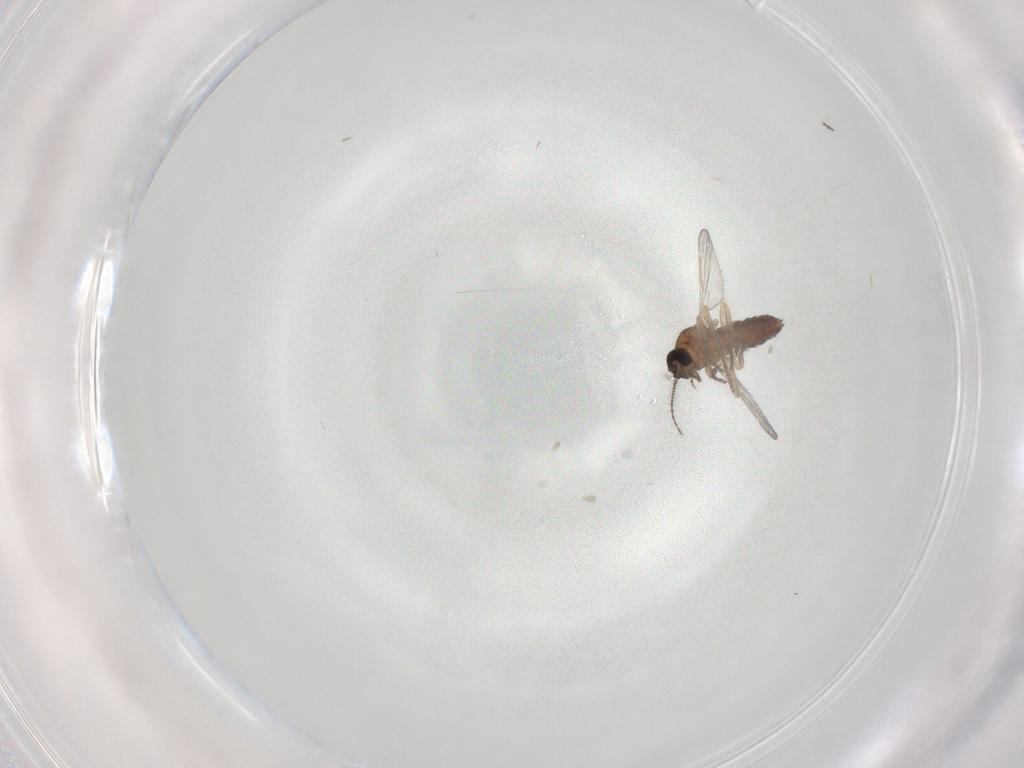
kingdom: Animalia
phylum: Arthropoda
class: Insecta
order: Diptera
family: Ceratopogonidae
